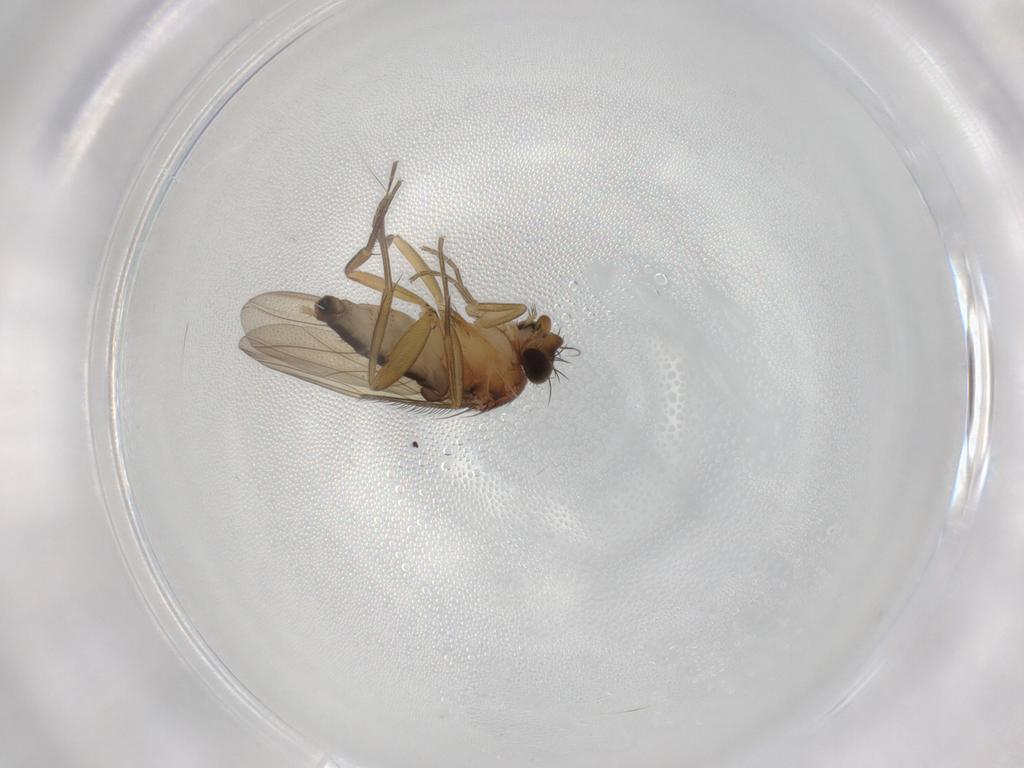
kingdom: Animalia
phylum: Arthropoda
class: Insecta
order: Diptera
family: Phoridae
